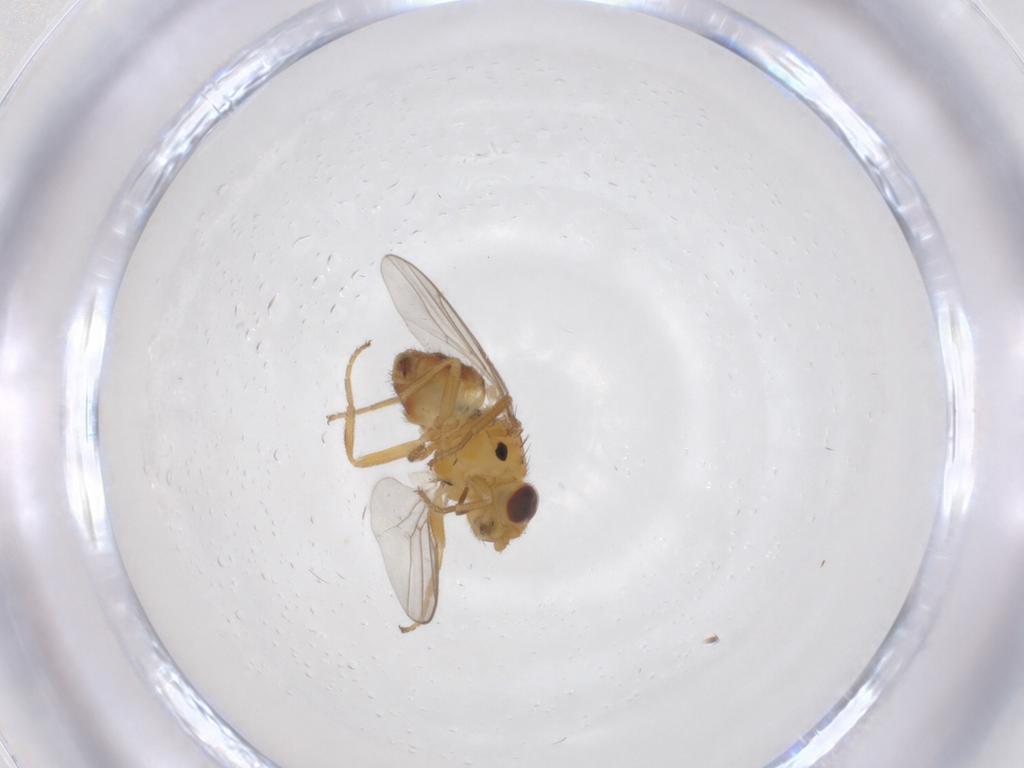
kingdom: Animalia
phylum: Arthropoda
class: Insecta
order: Diptera
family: Chloropidae
